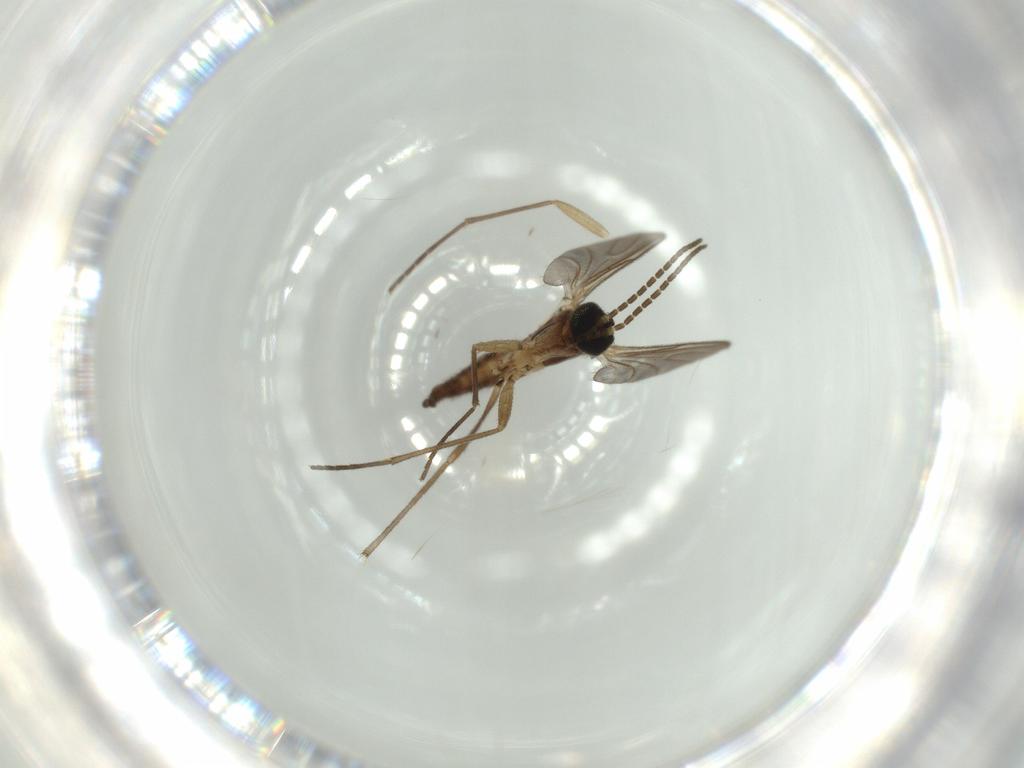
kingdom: Animalia
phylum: Arthropoda
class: Insecta
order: Diptera
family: Sciaridae
